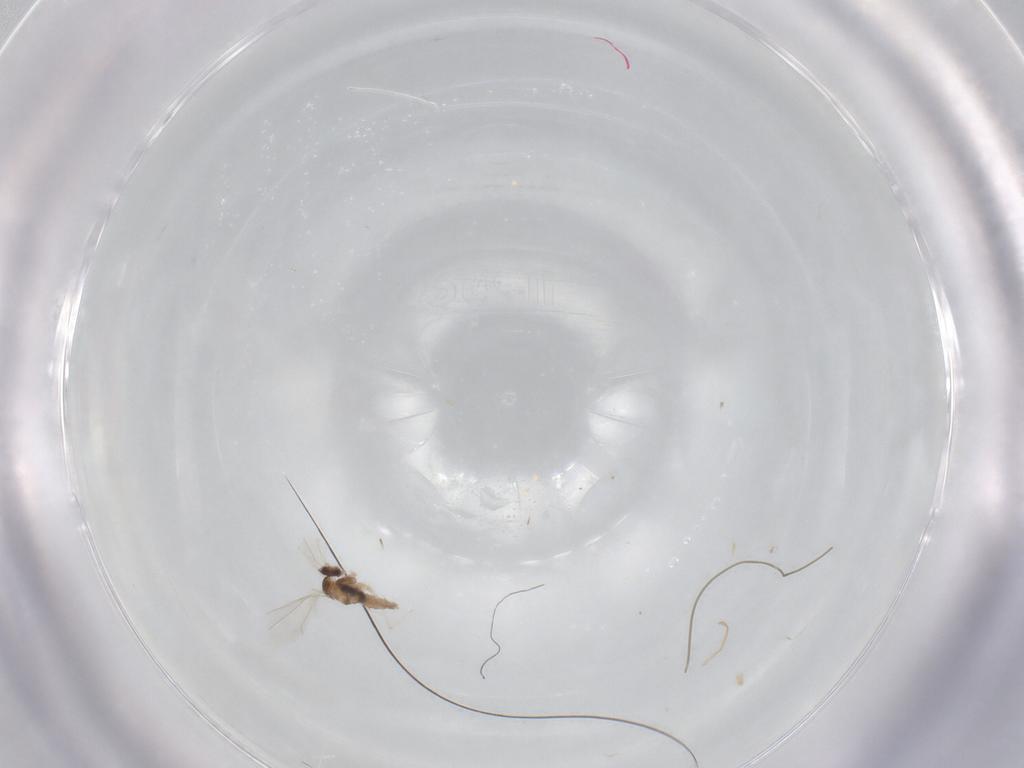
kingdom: Animalia
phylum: Arthropoda
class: Insecta
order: Diptera
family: Cecidomyiidae
